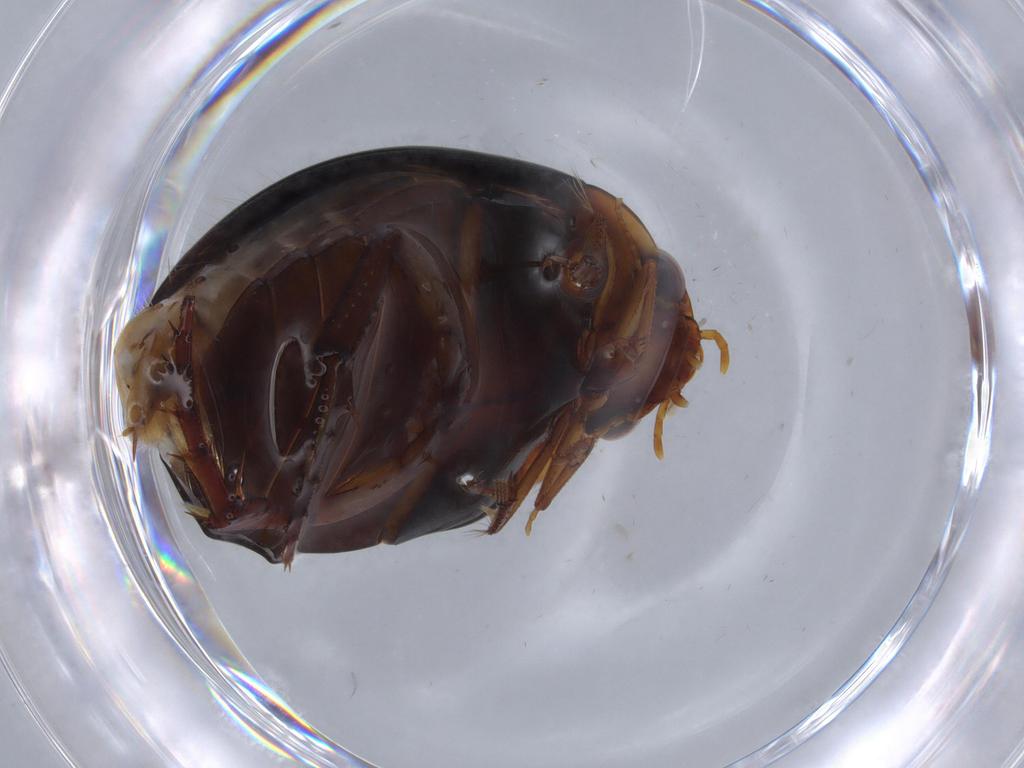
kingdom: Animalia
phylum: Arthropoda
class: Insecta
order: Coleoptera
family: Dytiscidae
